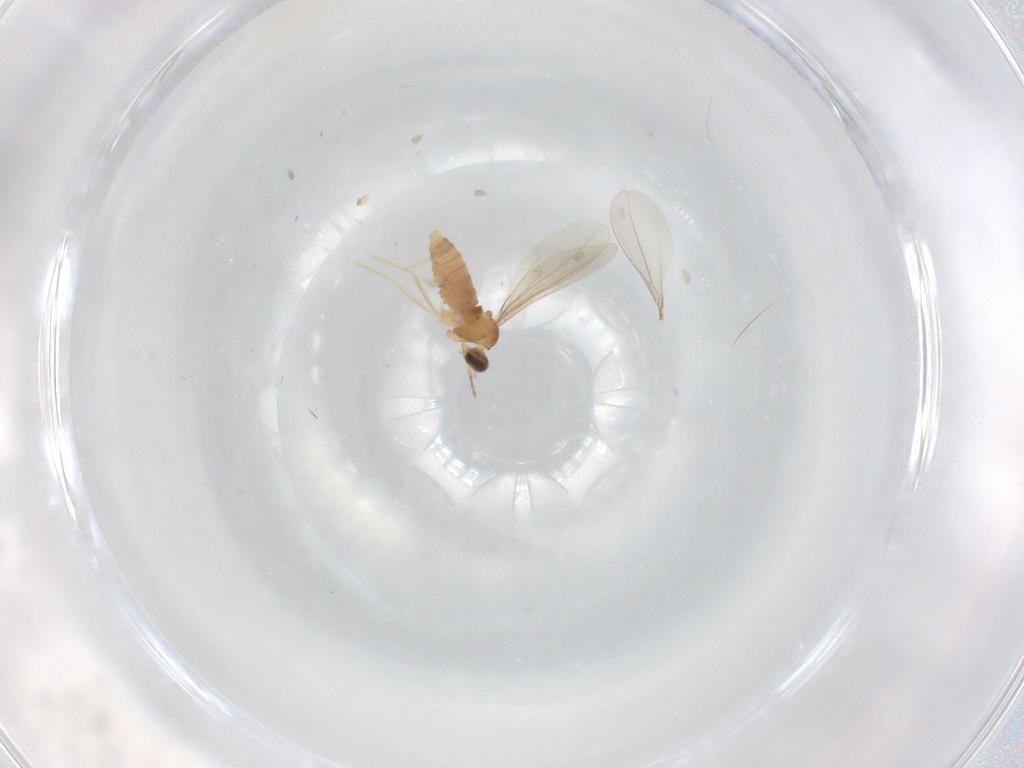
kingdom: Animalia
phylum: Arthropoda
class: Insecta
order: Diptera
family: Cecidomyiidae
